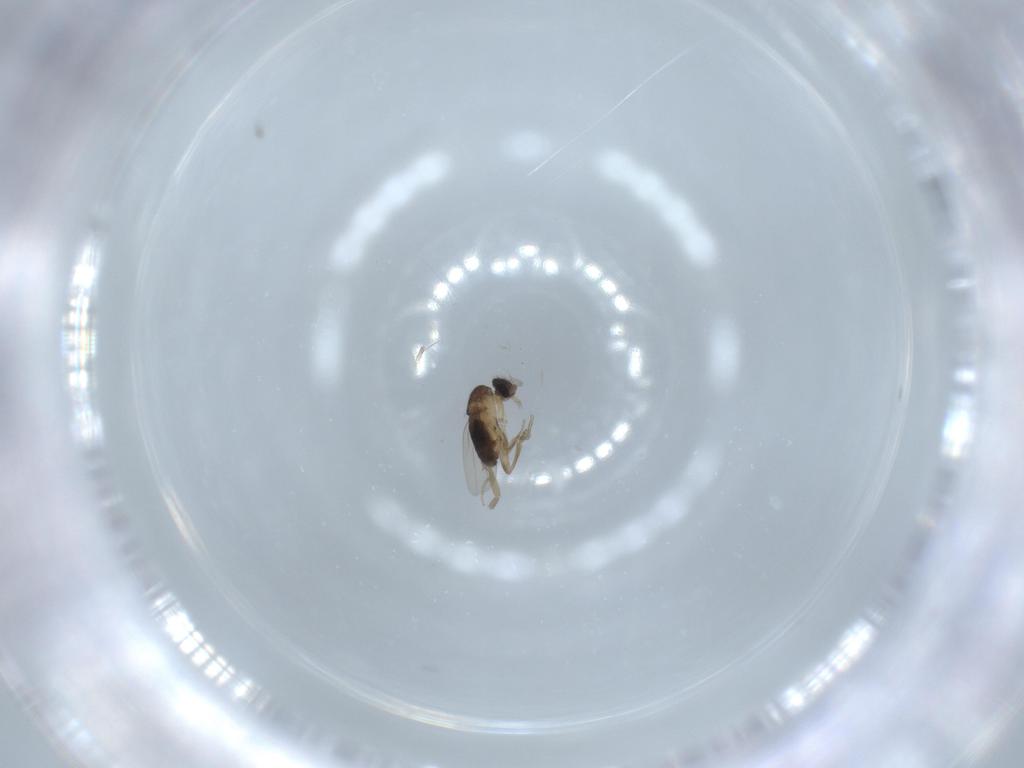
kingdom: Animalia
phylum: Arthropoda
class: Insecta
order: Diptera
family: Phoridae
